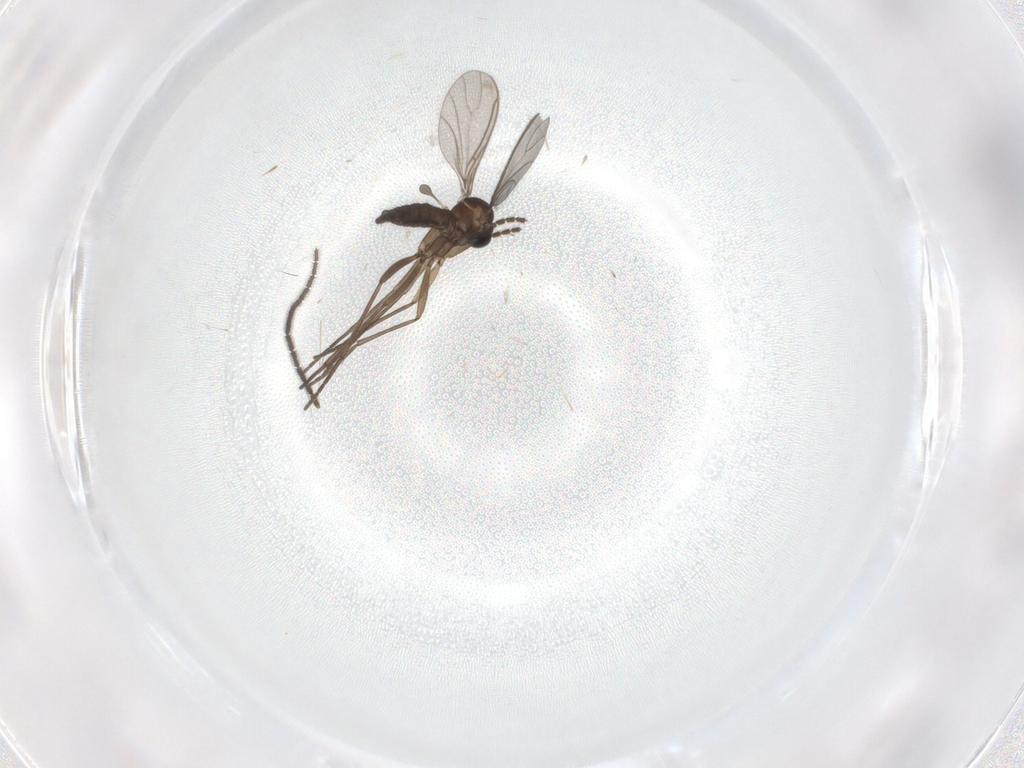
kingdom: Animalia
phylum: Arthropoda
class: Insecta
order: Diptera
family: Sciaridae
